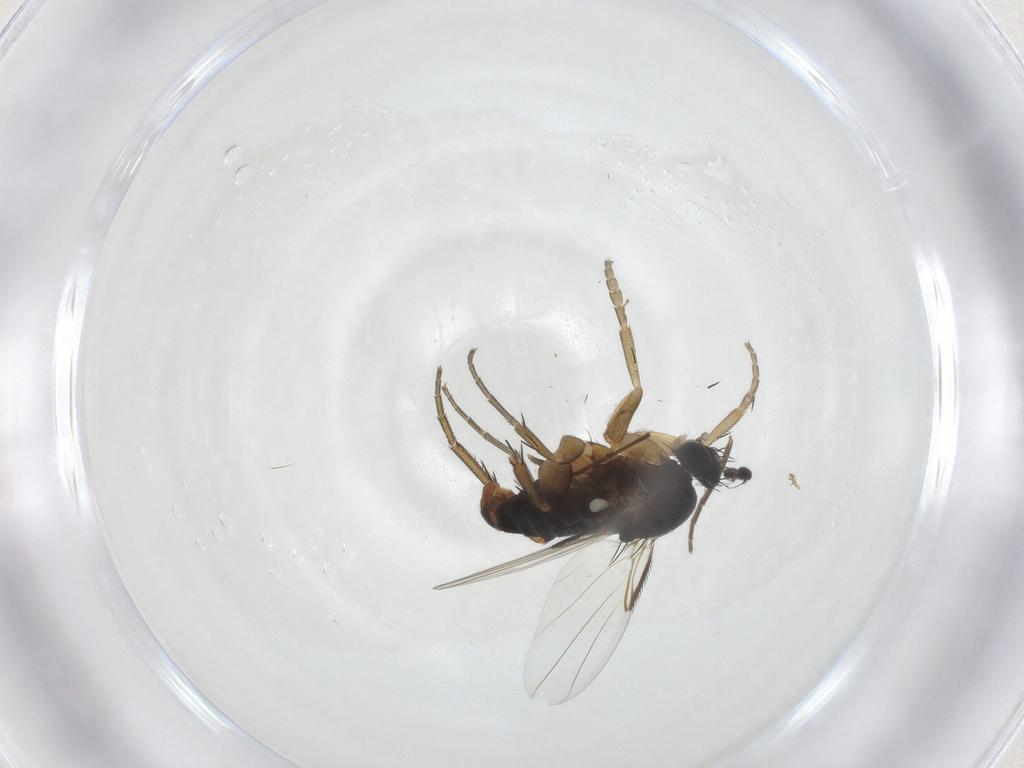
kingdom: Animalia
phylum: Arthropoda
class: Insecta
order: Diptera
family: Phoridae
